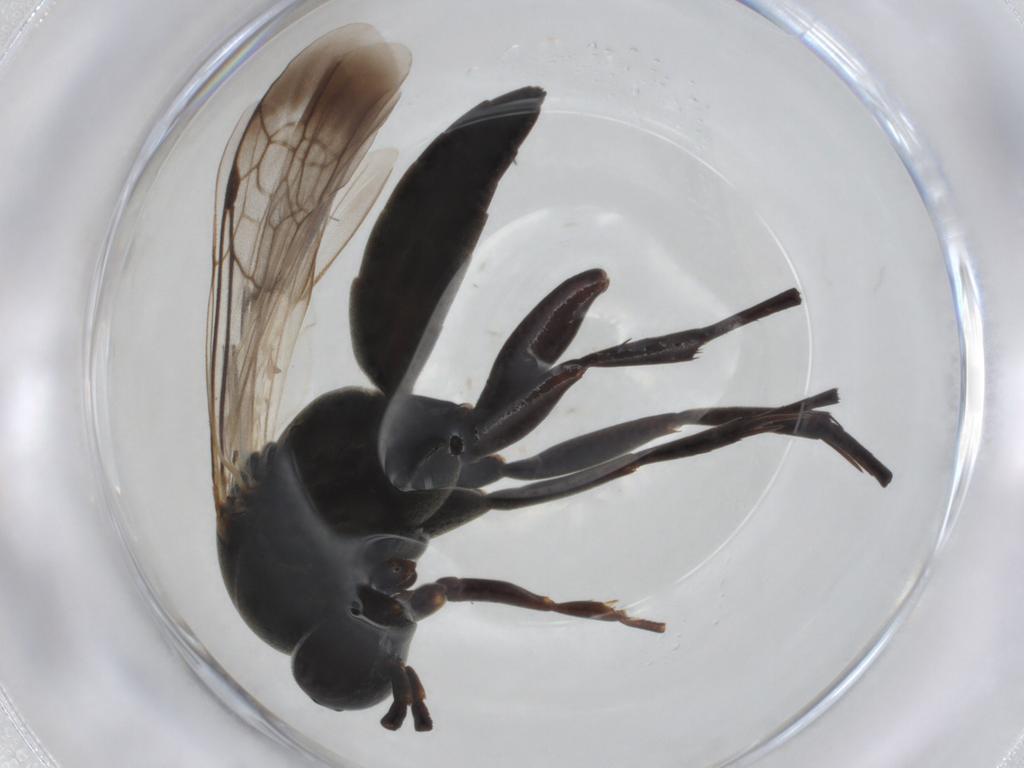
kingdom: Animalia
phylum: Arthropoda
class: Insecta
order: Hymenoptera
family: Pompilidae
